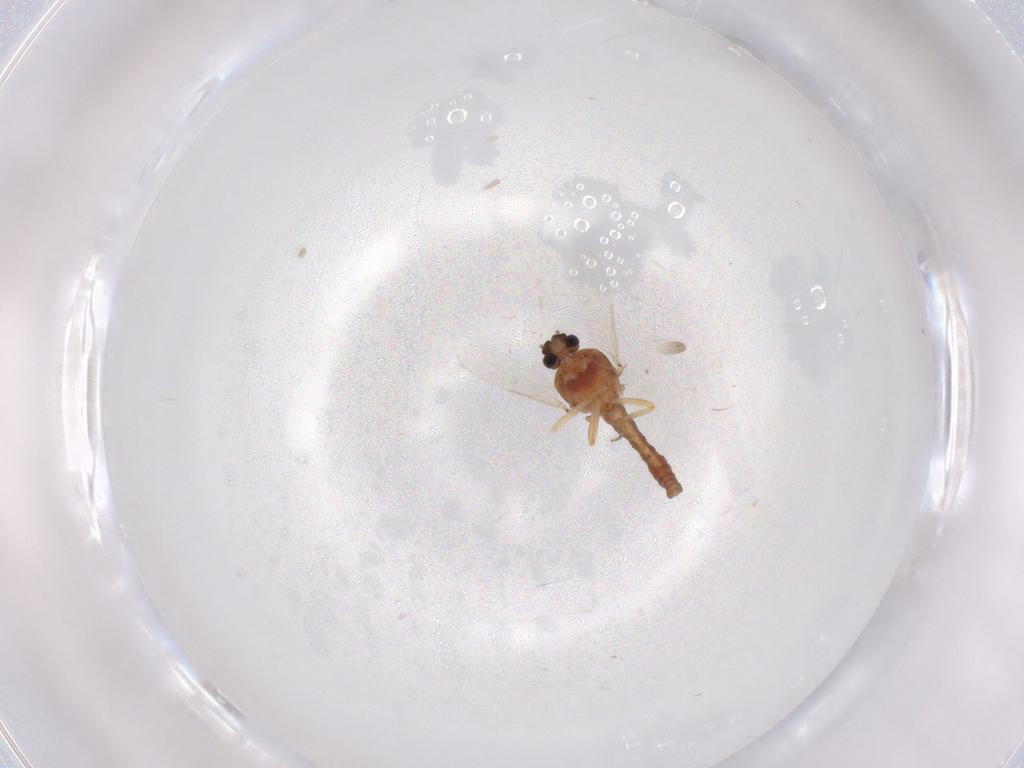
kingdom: Animalia
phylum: Arthropoda
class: Insecta
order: Diptera
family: Ceratopogonidae
